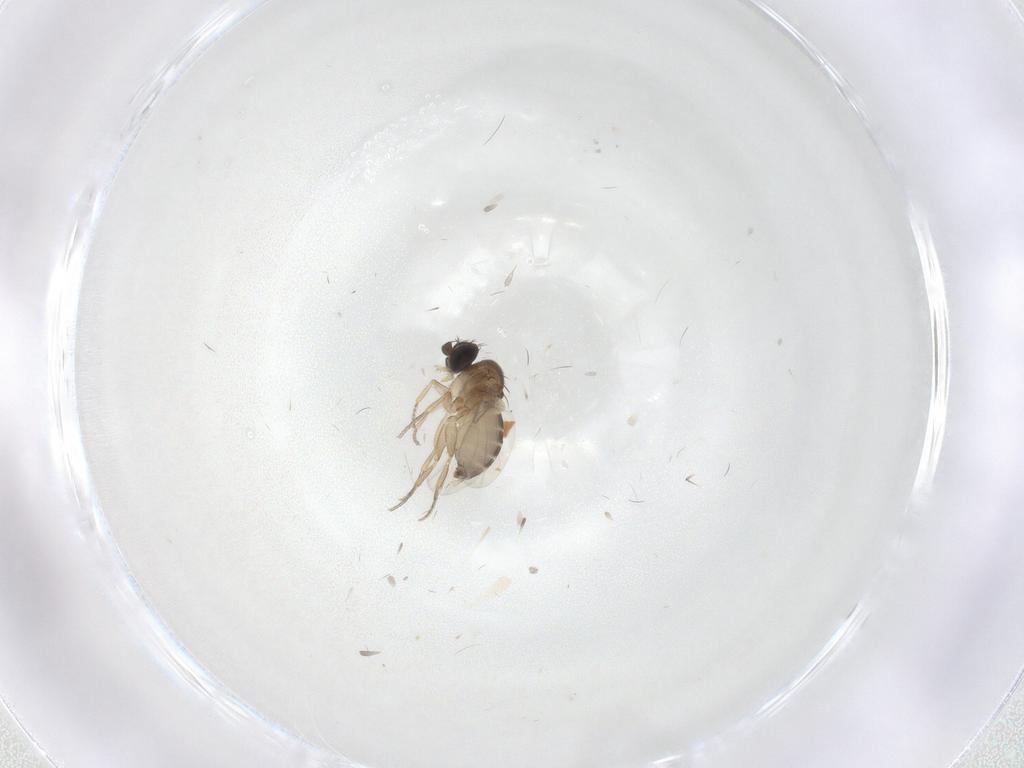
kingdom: Animalia
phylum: Arthropoda
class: Insecta
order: Diptera
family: Phoridae
